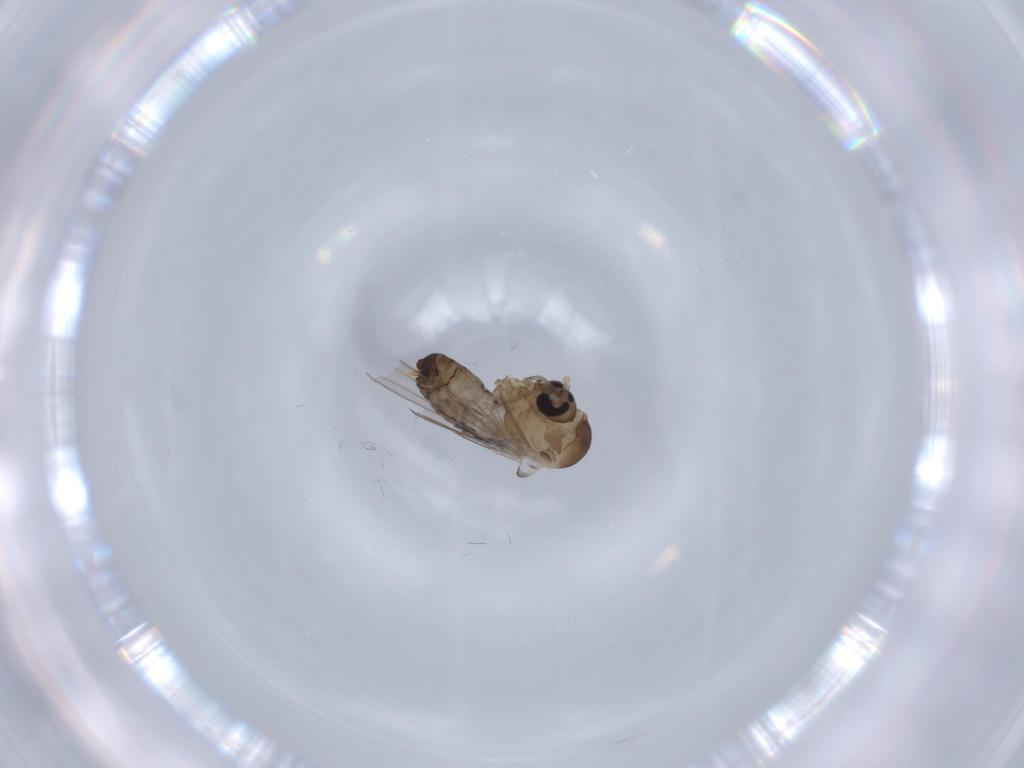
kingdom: Animalia
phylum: Arthropoda
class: Insecta
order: Diptera
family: Psychodidae
